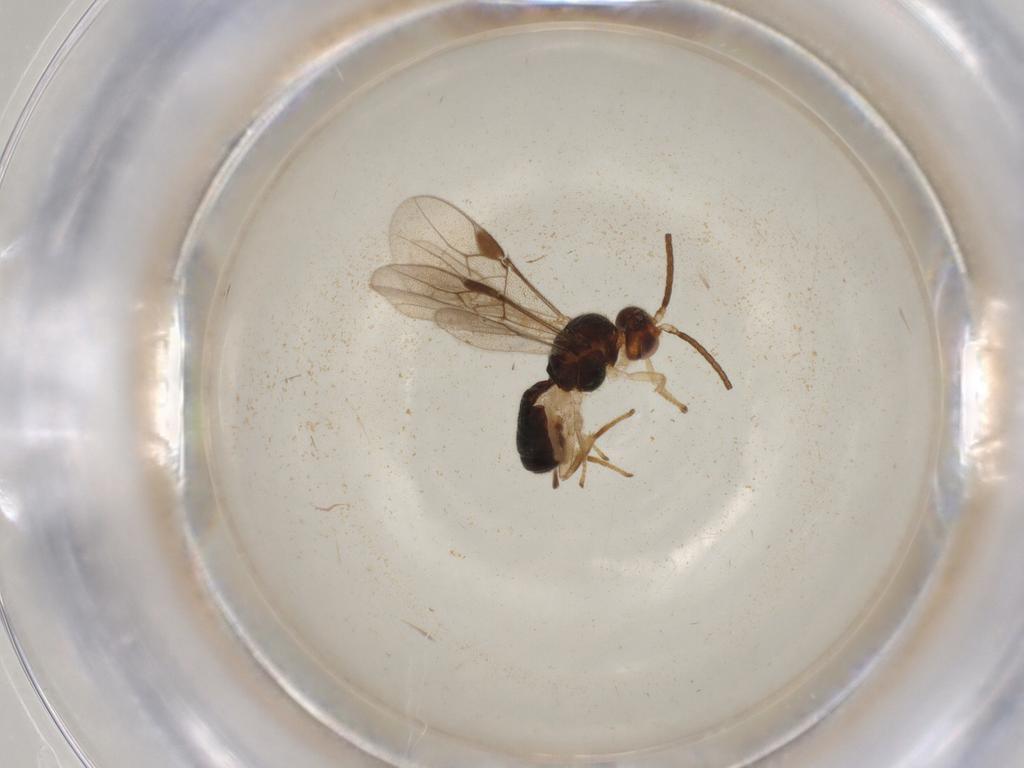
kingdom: Animalia
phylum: Arthropoda
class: Insecta
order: Hymenoptera
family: Braconidae
